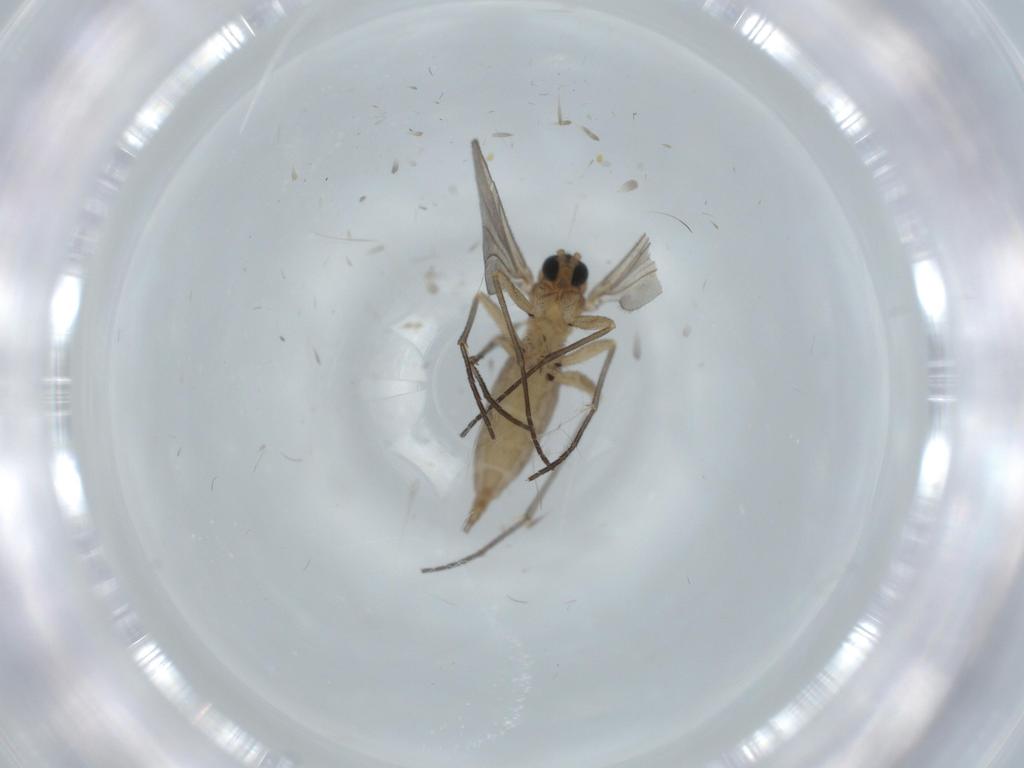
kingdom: Animalia
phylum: Arthropoda
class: Insecta
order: Diptera
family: Sciaridae
